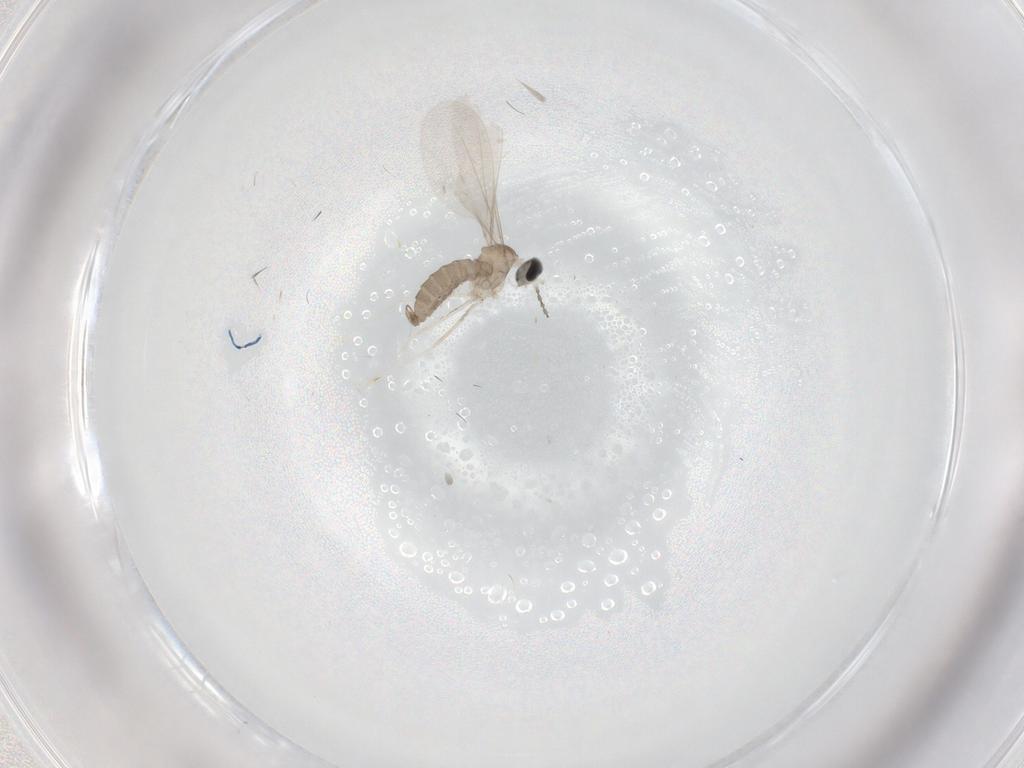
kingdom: Animalia
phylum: Arthropoda
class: Insecta
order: Diptera
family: Cecidomyiidae
